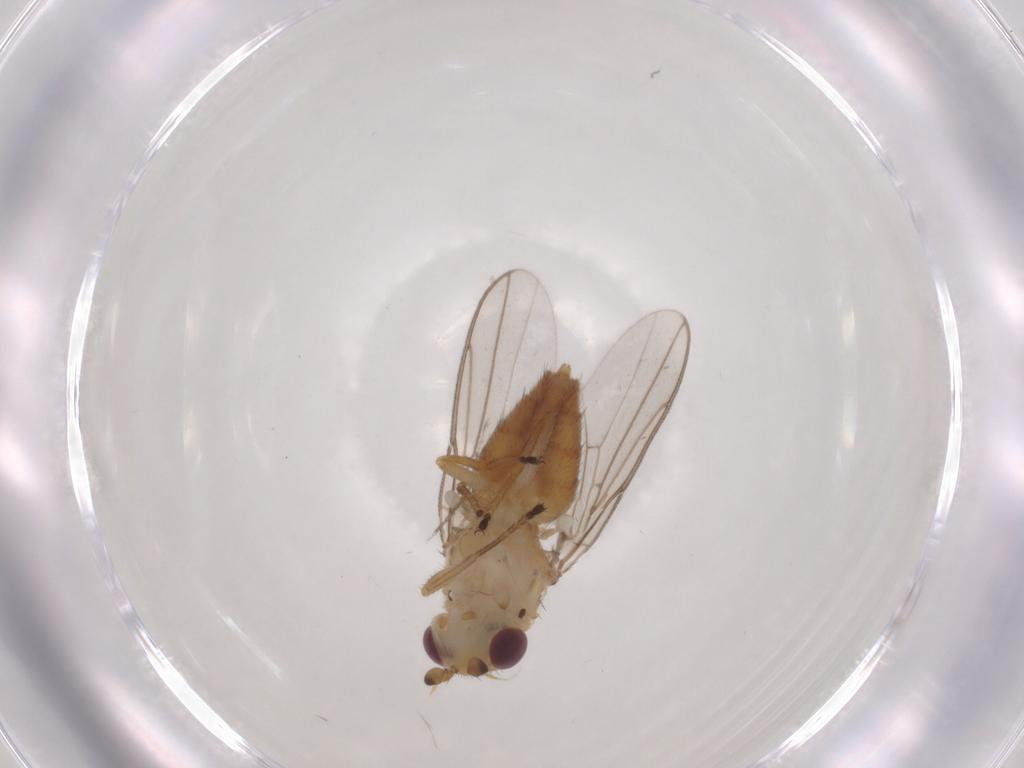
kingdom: Animalia
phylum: Arthropoda
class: Insecta
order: Diptera
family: Chloropidae
